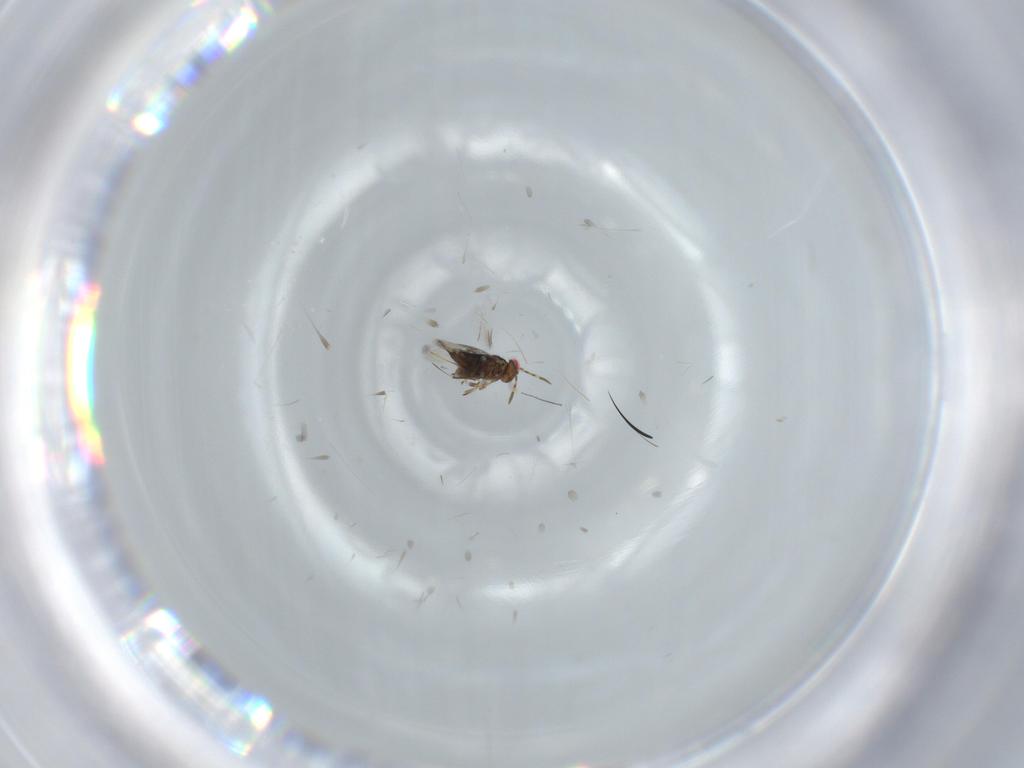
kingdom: Animalia
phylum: Arthropoda
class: Insecta
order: Hymenoptera
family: Azotidae
